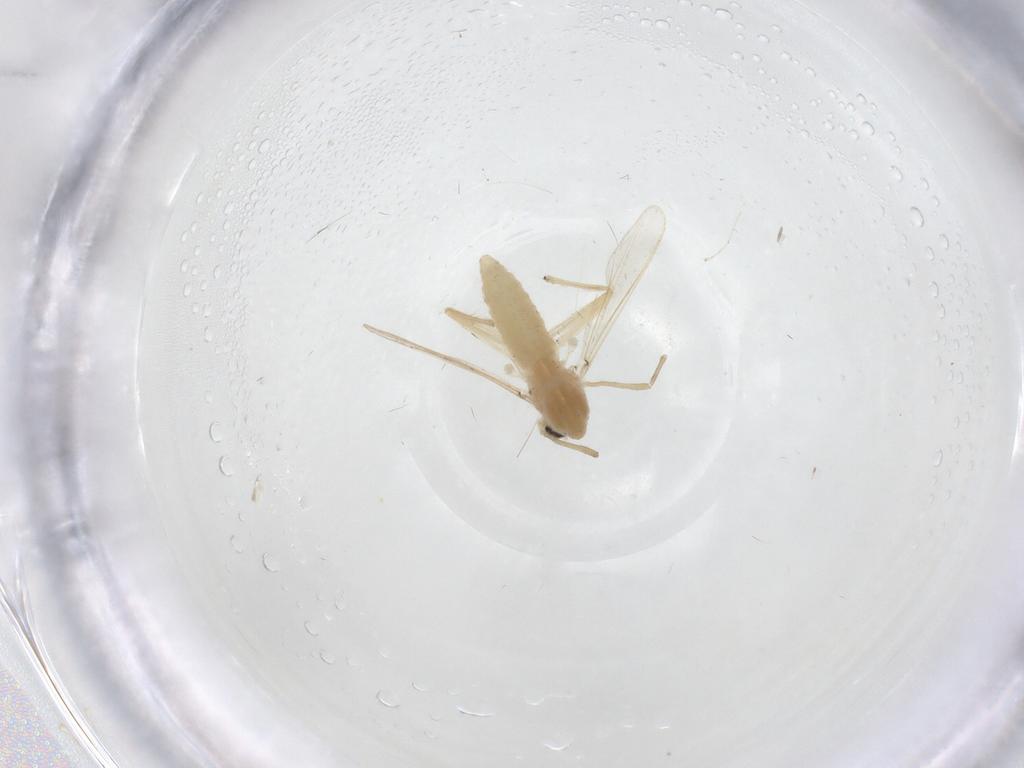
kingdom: Animalia
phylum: Arthropoda
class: Insecta
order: Diptera
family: Chironomidae
